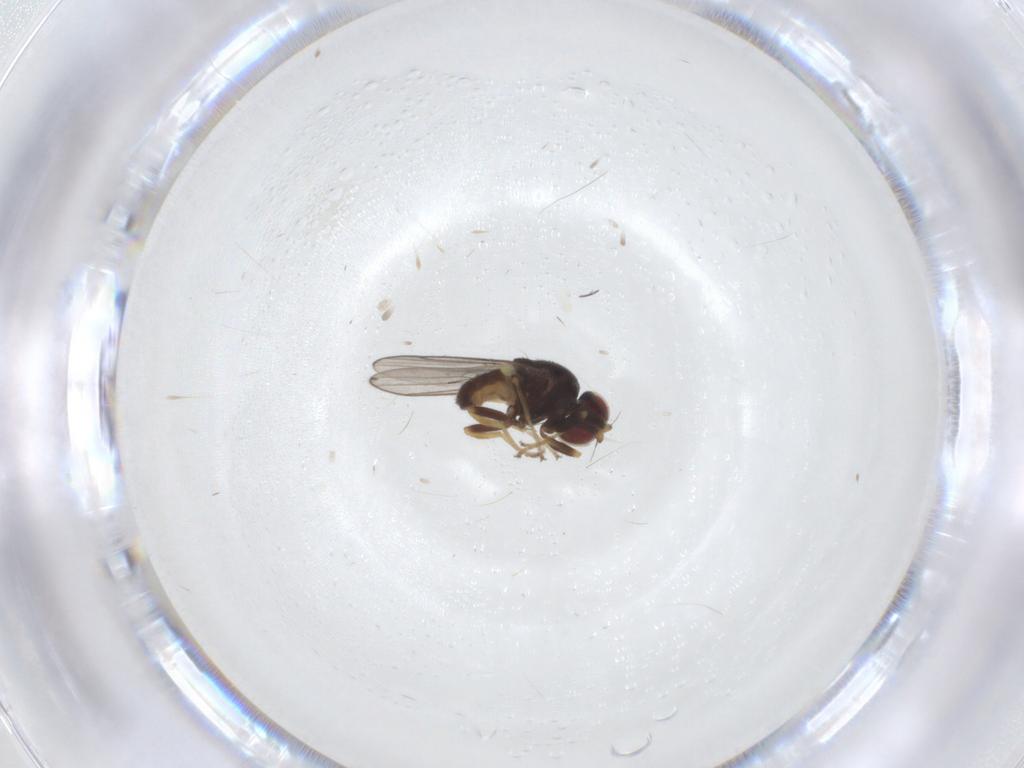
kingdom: Animalia
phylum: Arthropoda
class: Insecta
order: Diptera
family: Chloropidae
